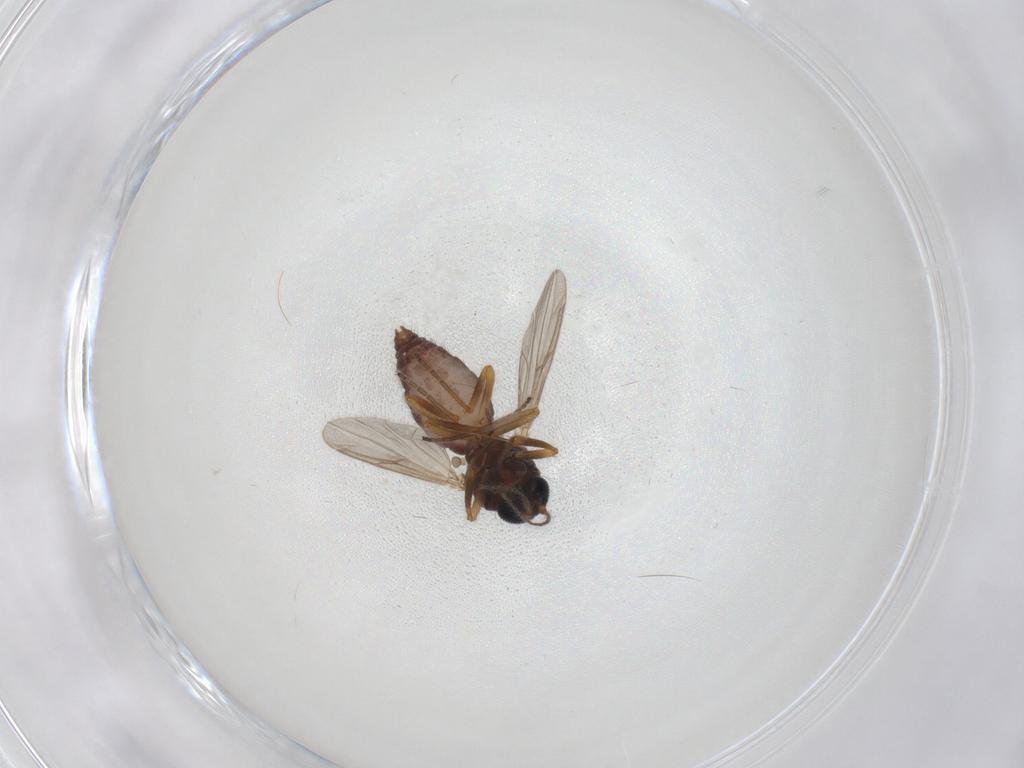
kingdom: Animalia
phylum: Arthropoda
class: Insecta
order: Diptera
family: Ceratopogonidae
